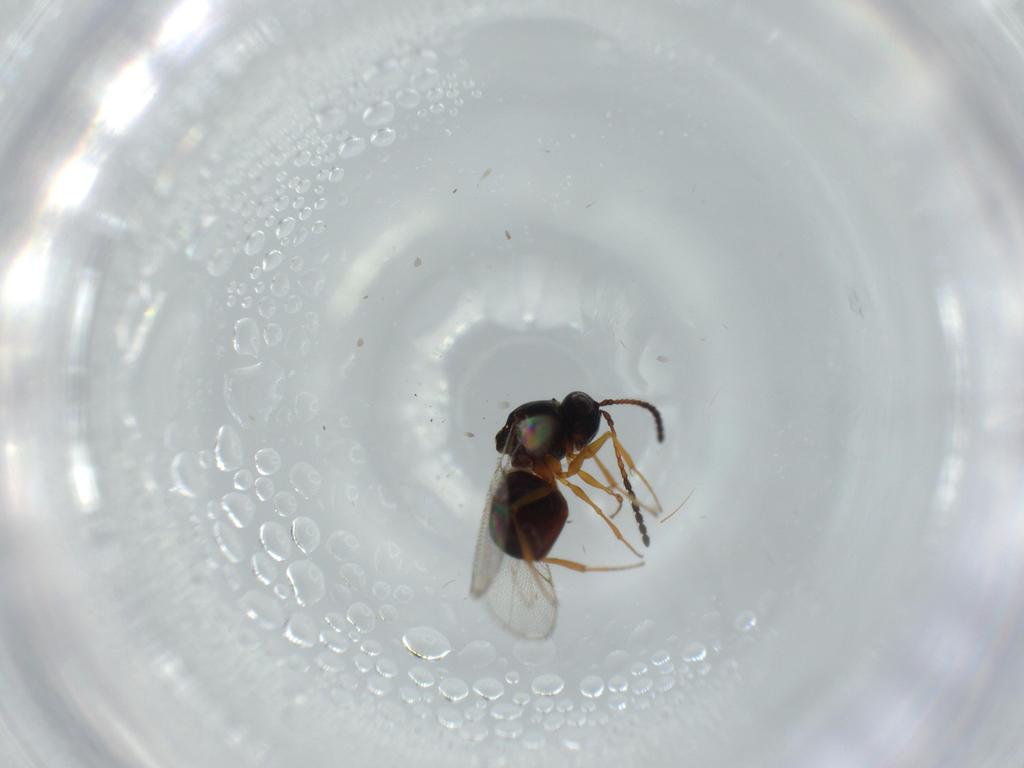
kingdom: Animalia
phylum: Arthropoda
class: Insecta
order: Hymenoptera
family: Figitidae
